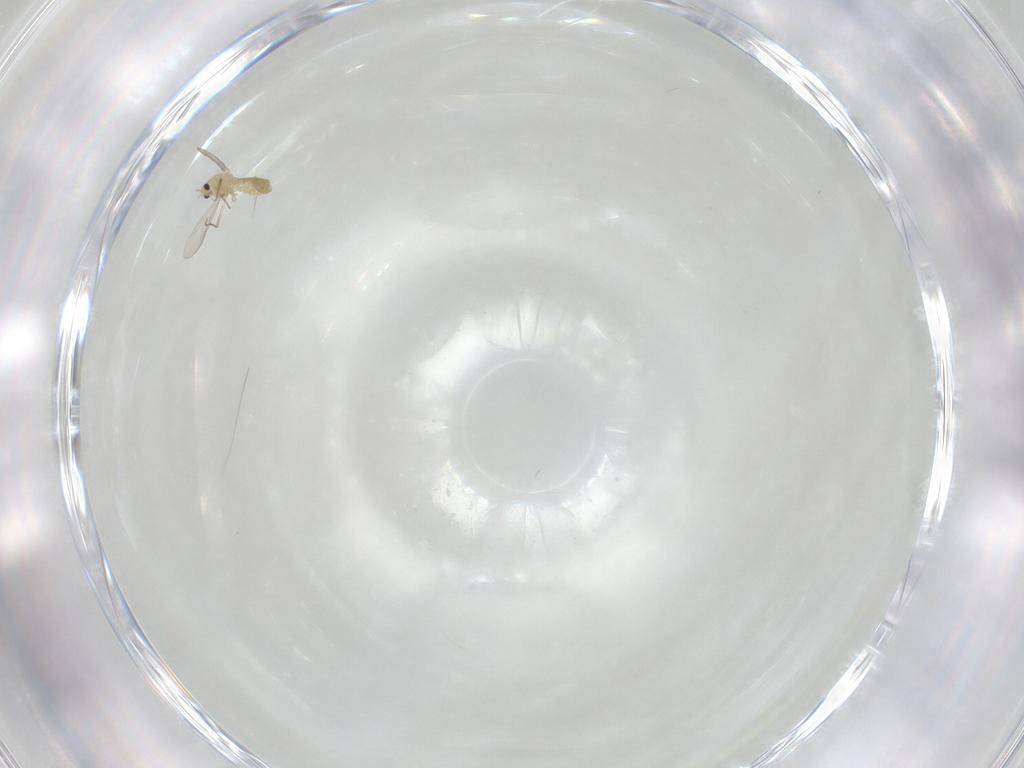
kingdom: Animalia
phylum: Arthropoda
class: Insecta
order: Diptera
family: Chironomidae
